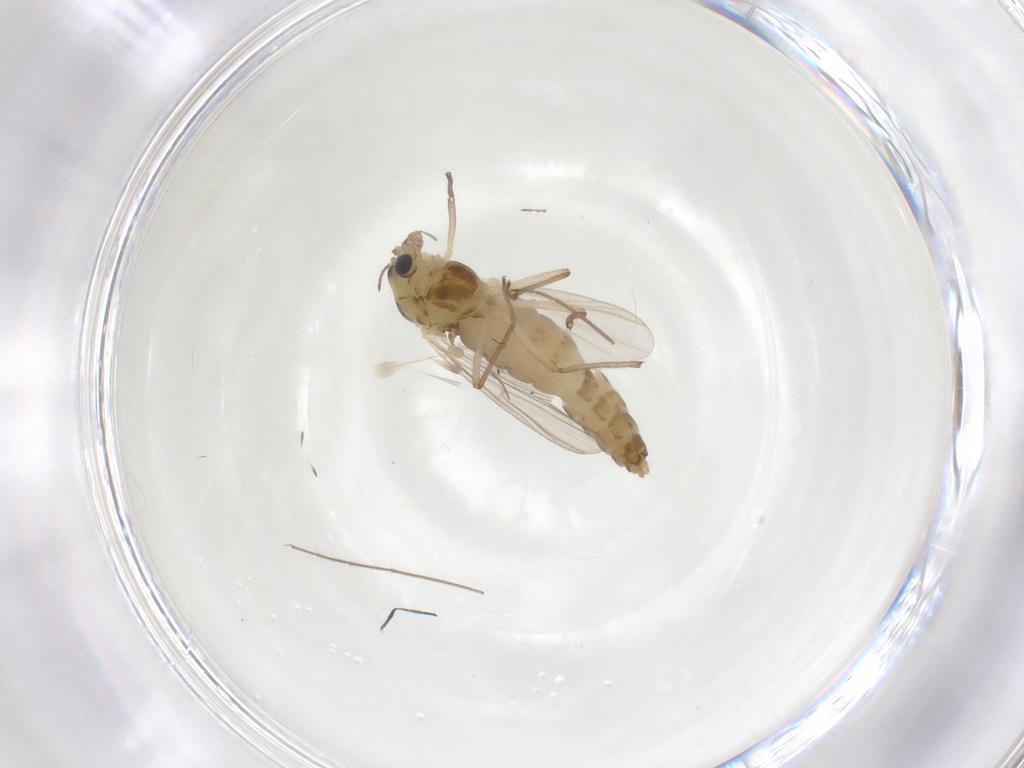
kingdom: Animalia
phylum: Arthropoda
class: Insecta
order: Diptera
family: Chironomidae
